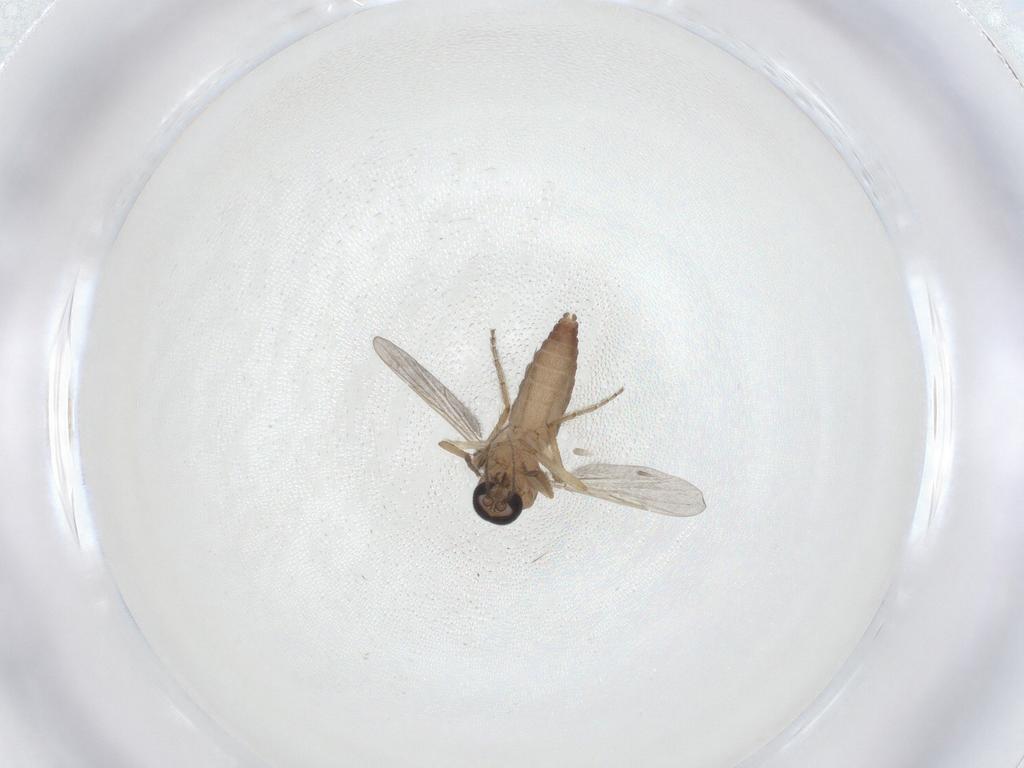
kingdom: Animalia
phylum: Arthropoda
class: Insecta
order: Diptera
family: Ceratopogonidae
